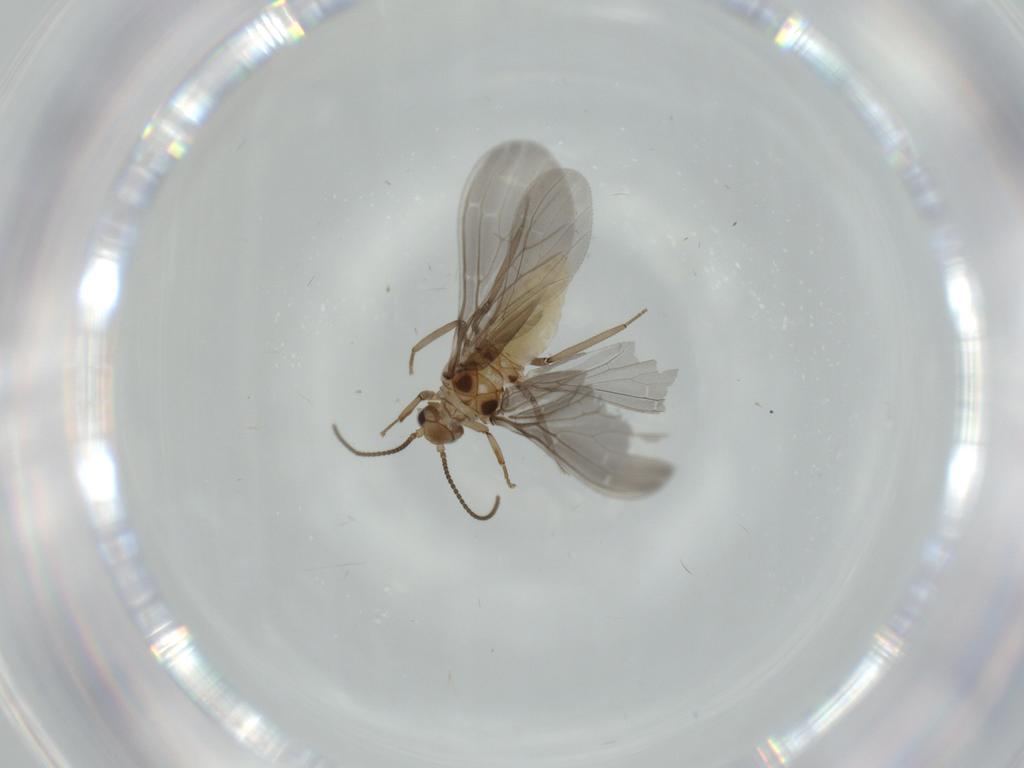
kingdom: Animalia
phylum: Arthropoda
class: Insecta
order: Neuroptera
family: Coniopterygidae
